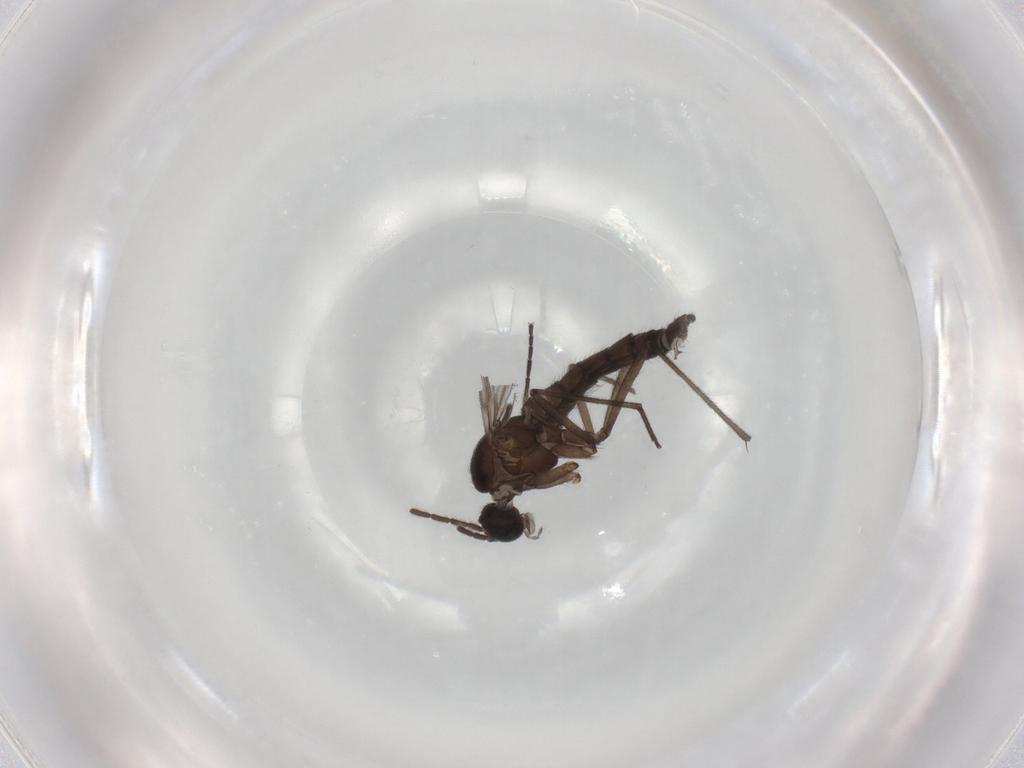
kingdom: Animalia
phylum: Arthropoda
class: Insecta
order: Diptera
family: Sciaridae
